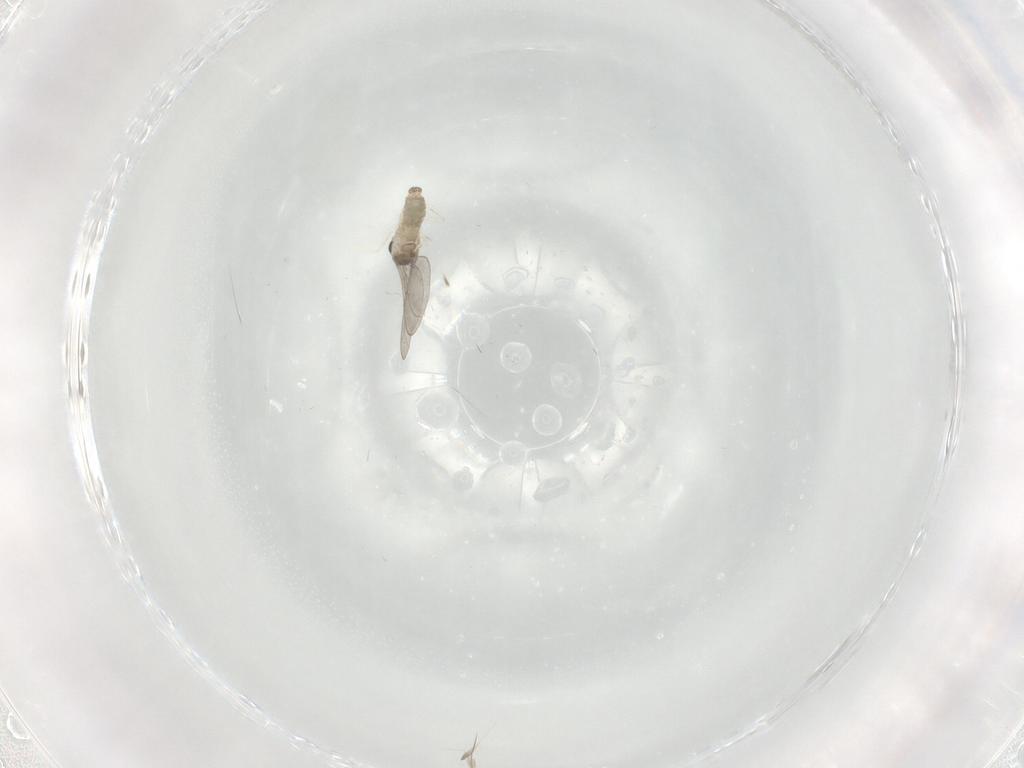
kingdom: Animalia
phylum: Arthropoda
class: Insecta
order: Diptera
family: Cecidomyiidae
